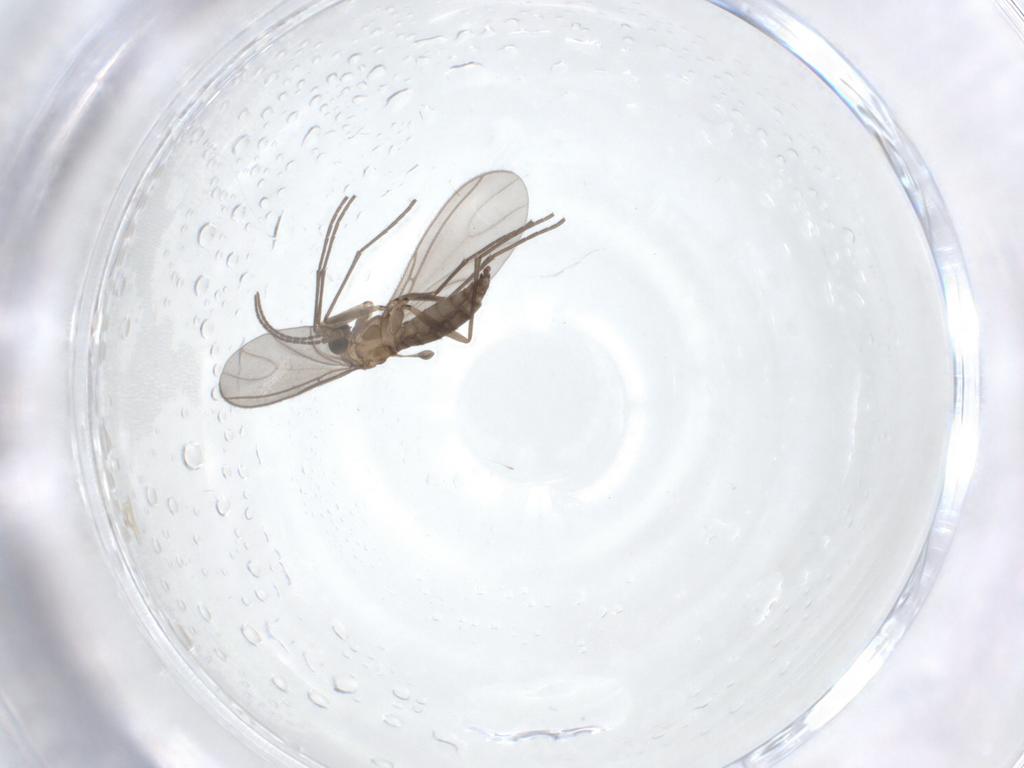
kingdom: Animalia
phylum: Arthropoda
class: Insecta
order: Diptera
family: Sciaridae
